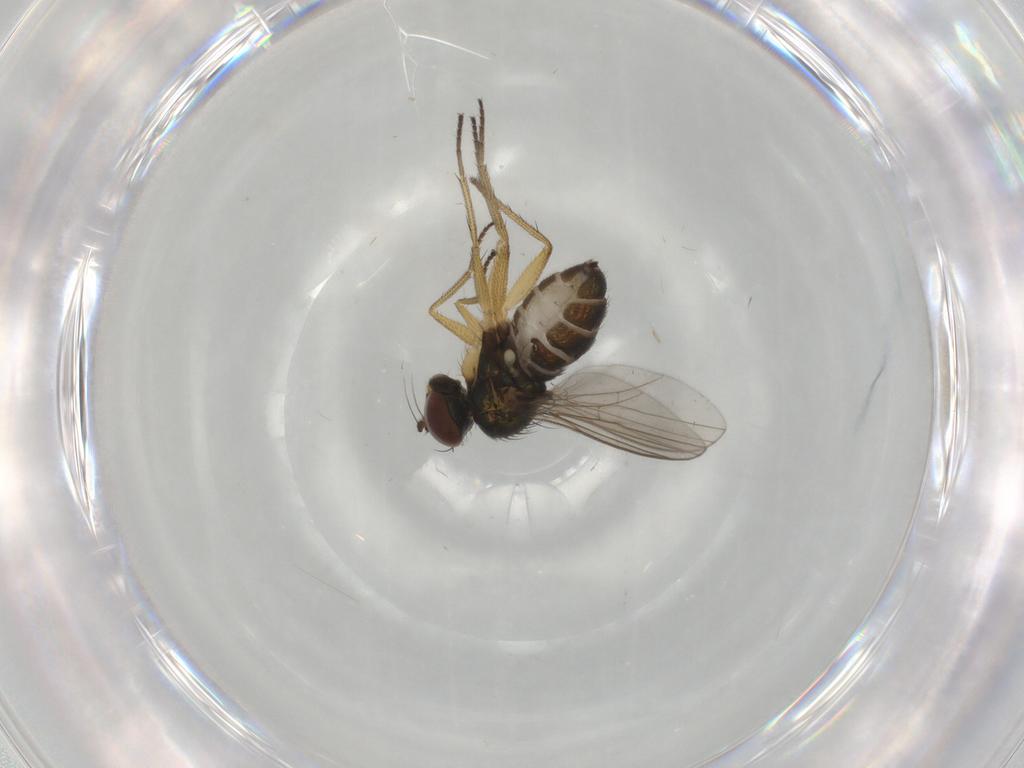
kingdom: Animalia
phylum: Arthropoda
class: Insecta
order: Diptera
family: Dolichopodidae
